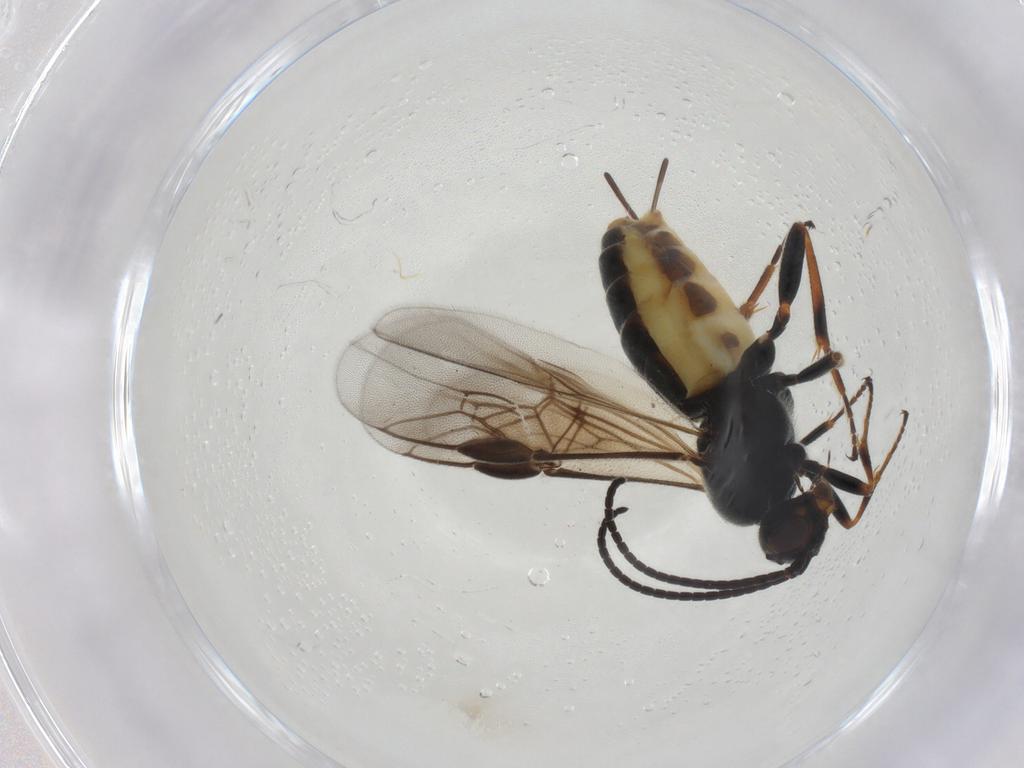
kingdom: Animalia
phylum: Arthropoda
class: Insecta
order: Hymenoptera
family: Braconidae
